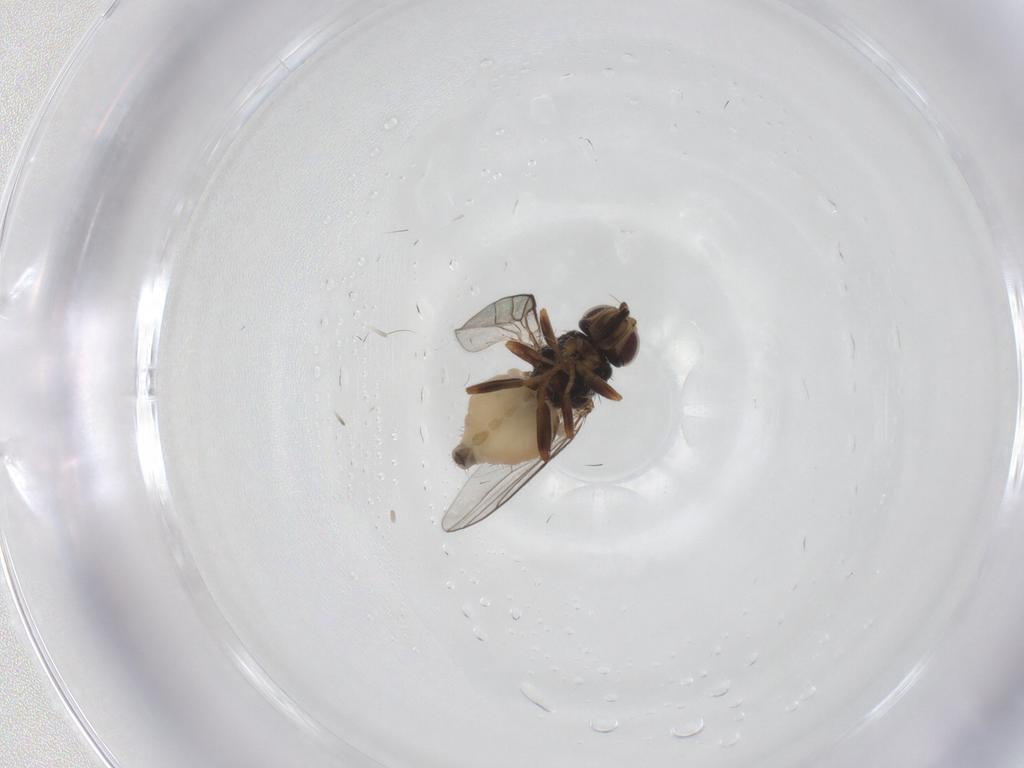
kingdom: Animalia
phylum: Arthropoda
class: Insecta
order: Diptera
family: Chloropidae
